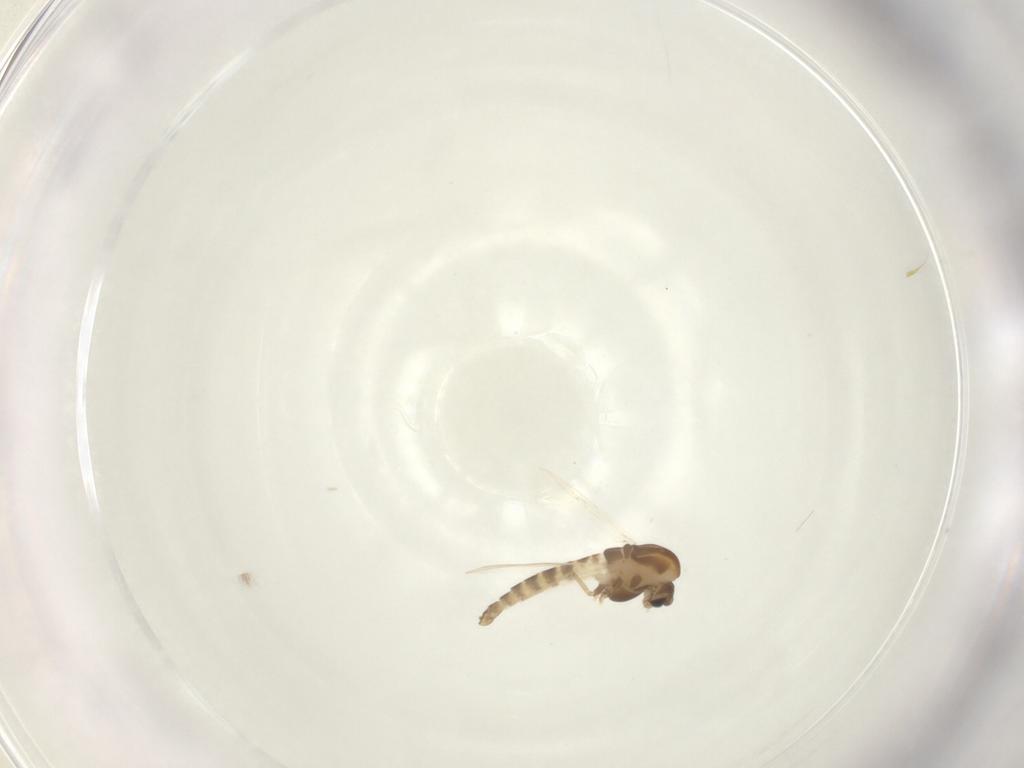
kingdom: Animalia
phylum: Arthropoda
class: Insecta
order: Diptera
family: Chironomidae
